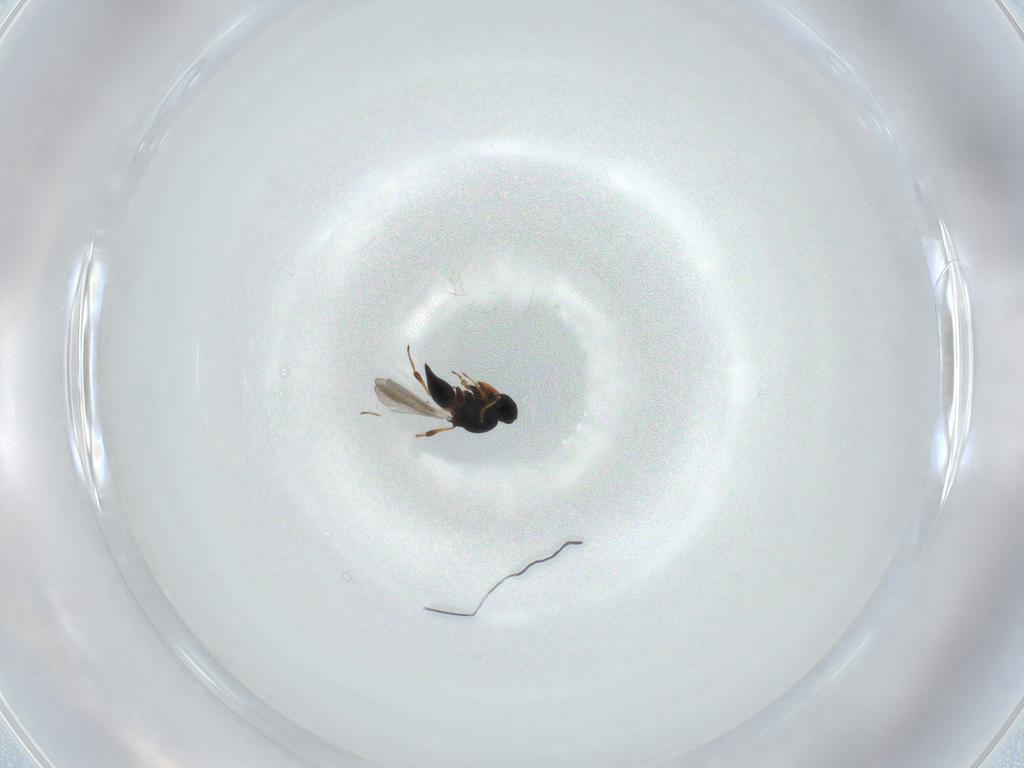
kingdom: Animalia
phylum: Arthropoda
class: Insecta
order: Hymenoptera
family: Platygastridae
